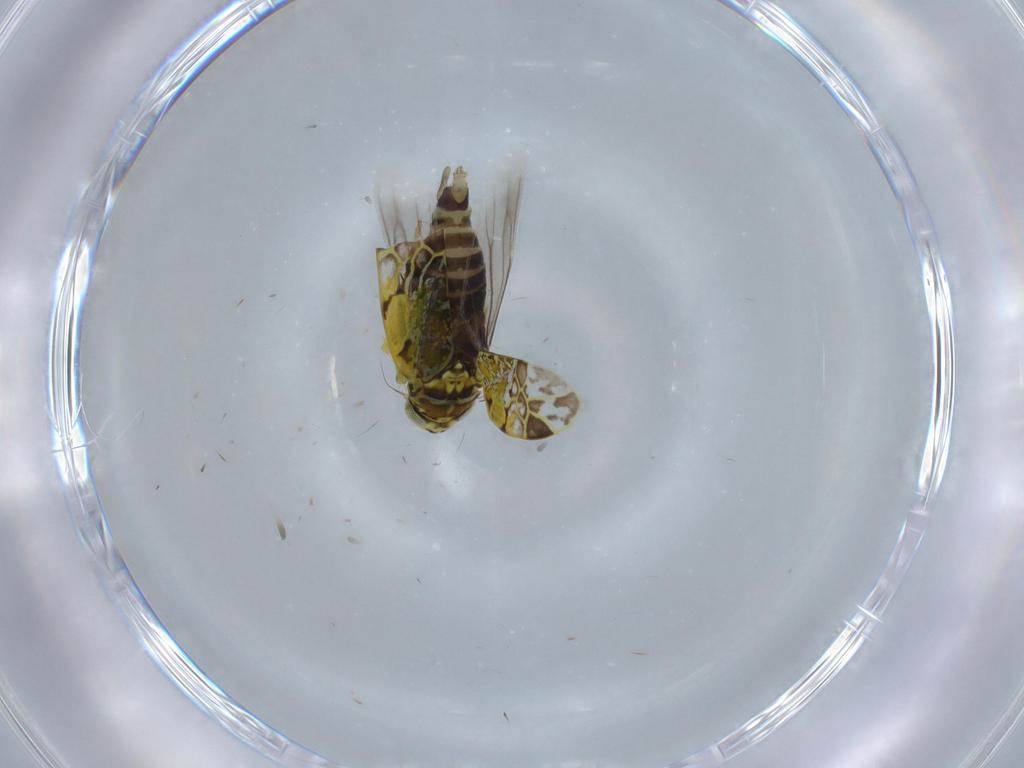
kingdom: Animalia
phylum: Arthropoda
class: Insecta
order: Hemiptera
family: Cicadellidae
